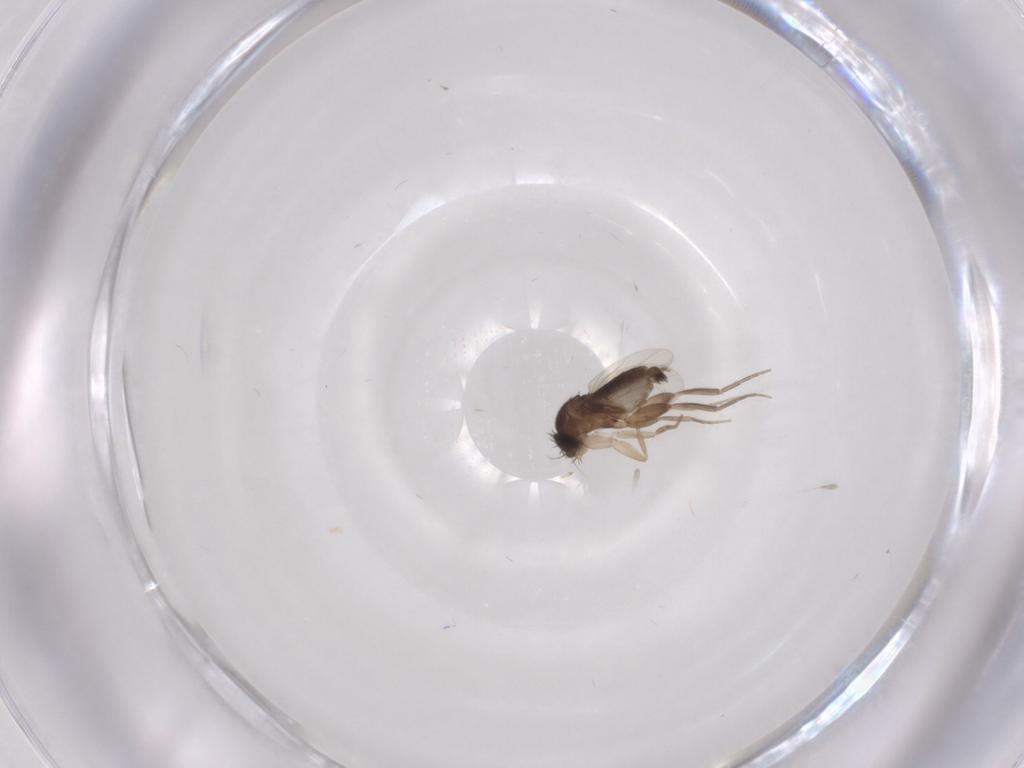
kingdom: Animalia
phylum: Arthropoda
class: Insecta
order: Diptera
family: Phoridae
